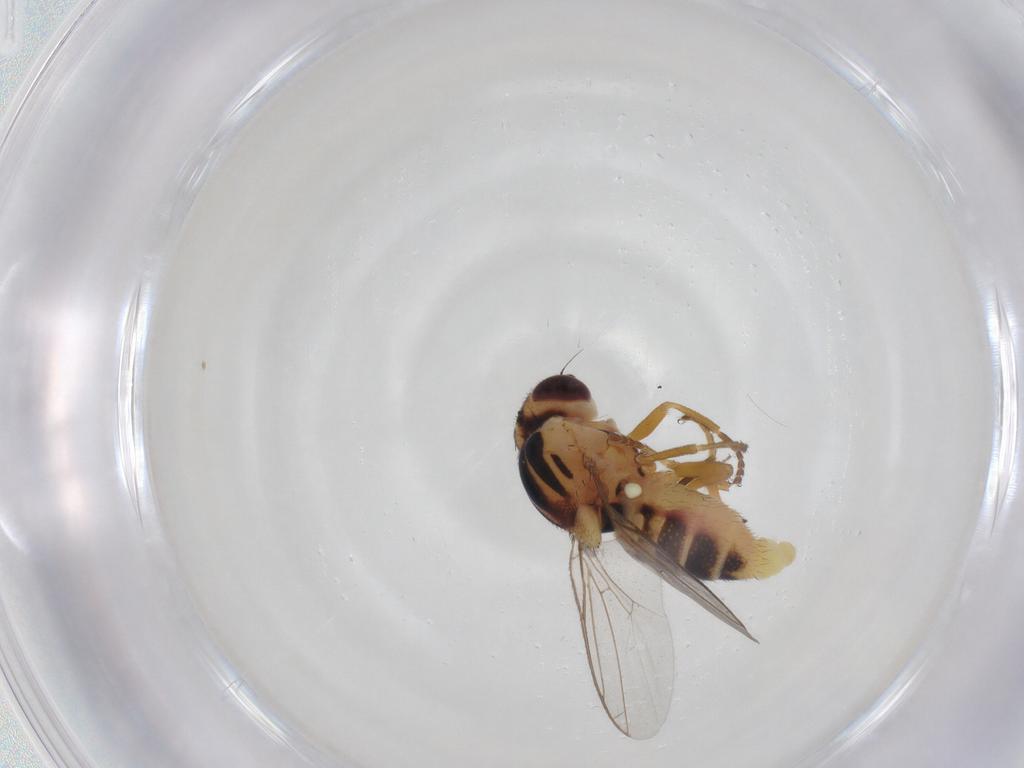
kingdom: Animalia
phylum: Arthropoda
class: Insecta
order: Diptera
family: Chloropidae
